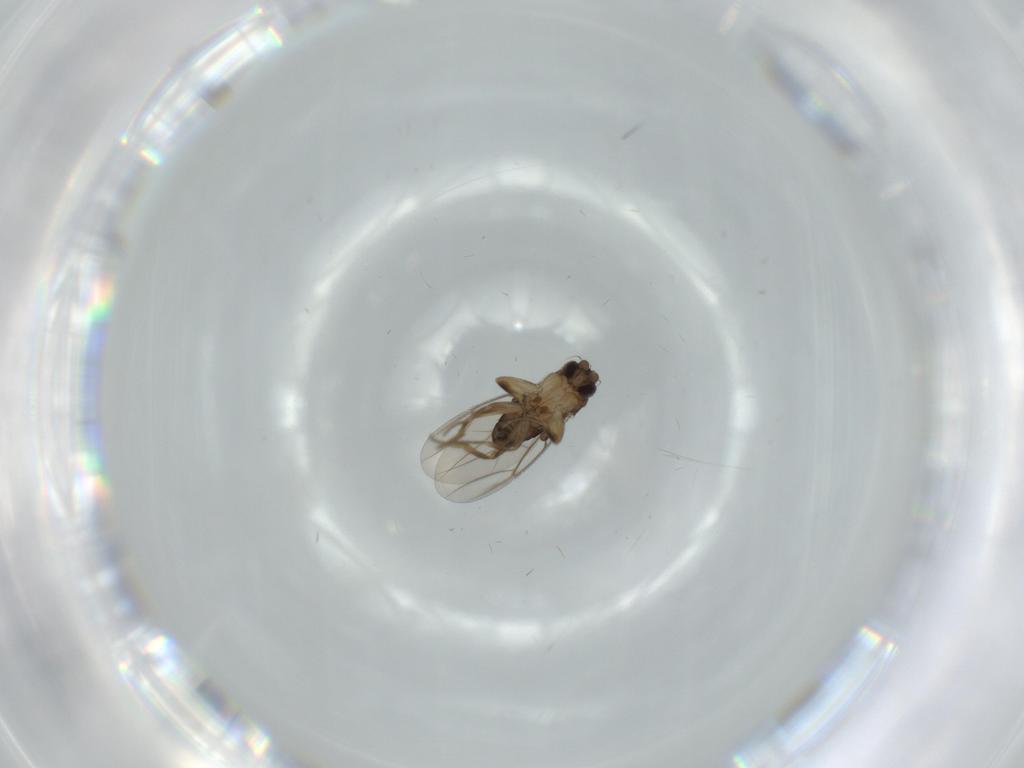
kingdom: Animalia
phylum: Arthropoda
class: Insecta
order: Diptera
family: Phoridae
